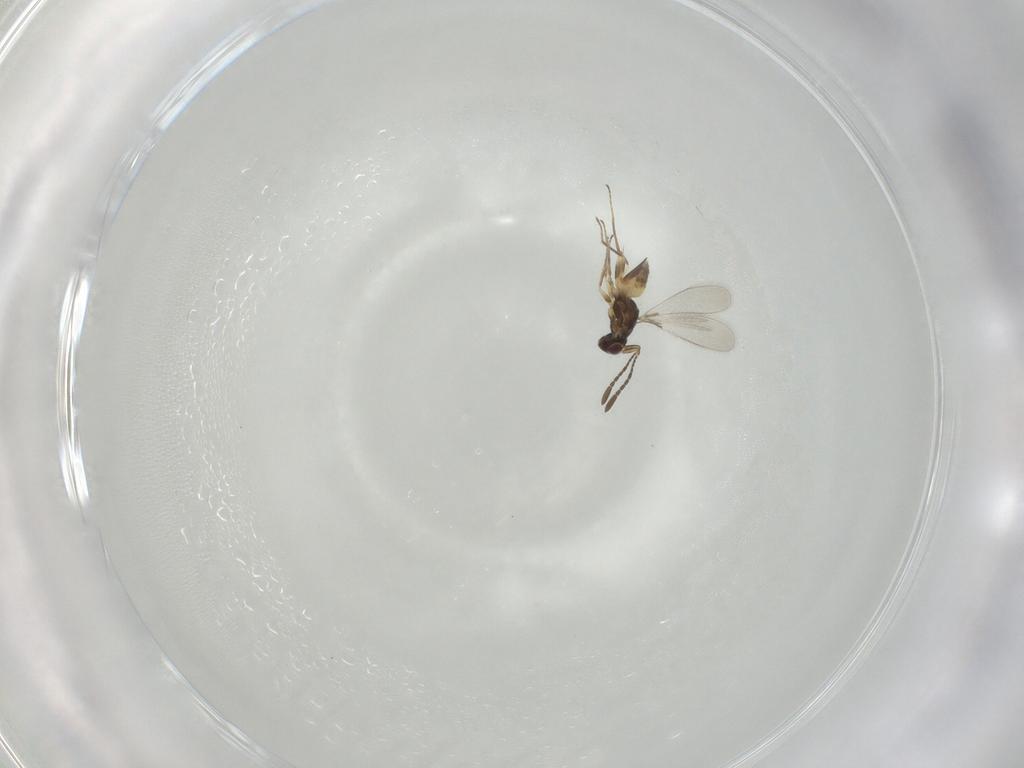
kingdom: Animalia
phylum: Arthropoda
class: Insecta
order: Hymenoptera
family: Mymaridae
